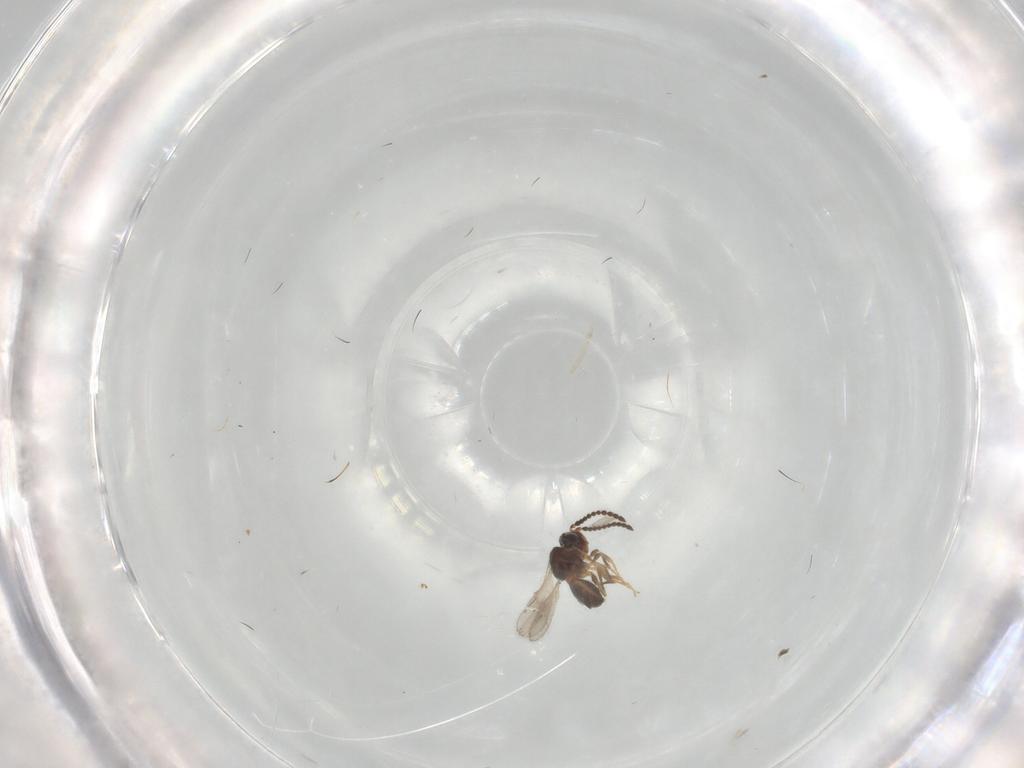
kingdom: Animalia
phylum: Arthropoda
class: Insecta
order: Hymenoptera
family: Scelionidae
